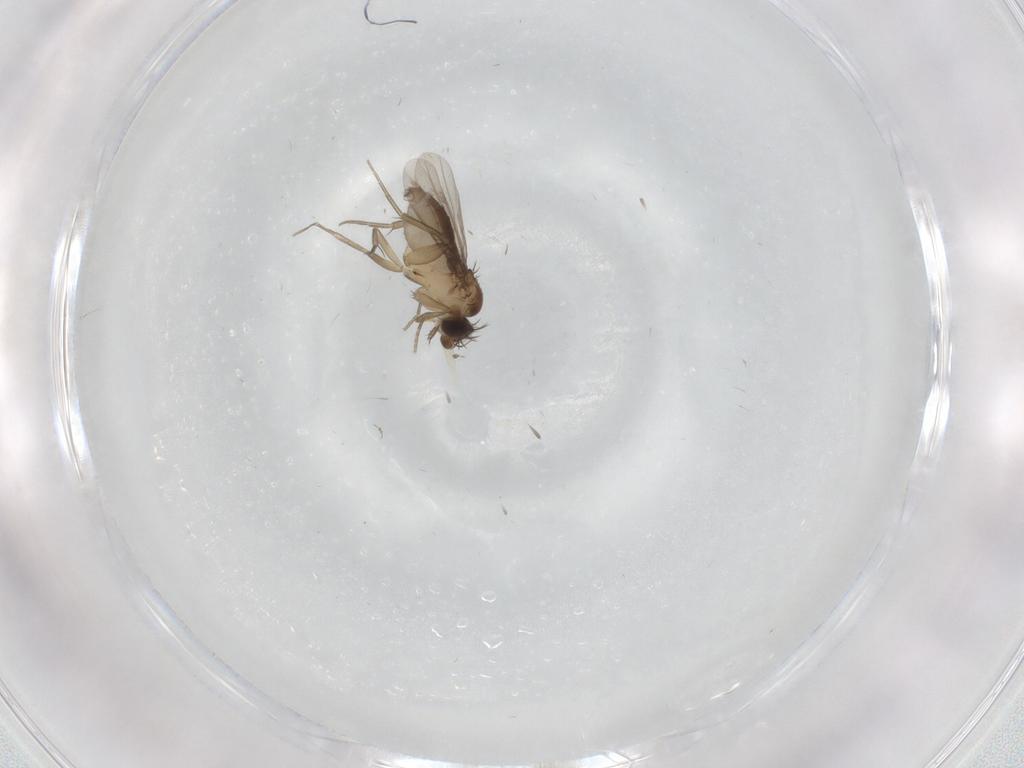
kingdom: Animalia
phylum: Arthropoda
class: Insecta
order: Diptera
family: Phoridae
